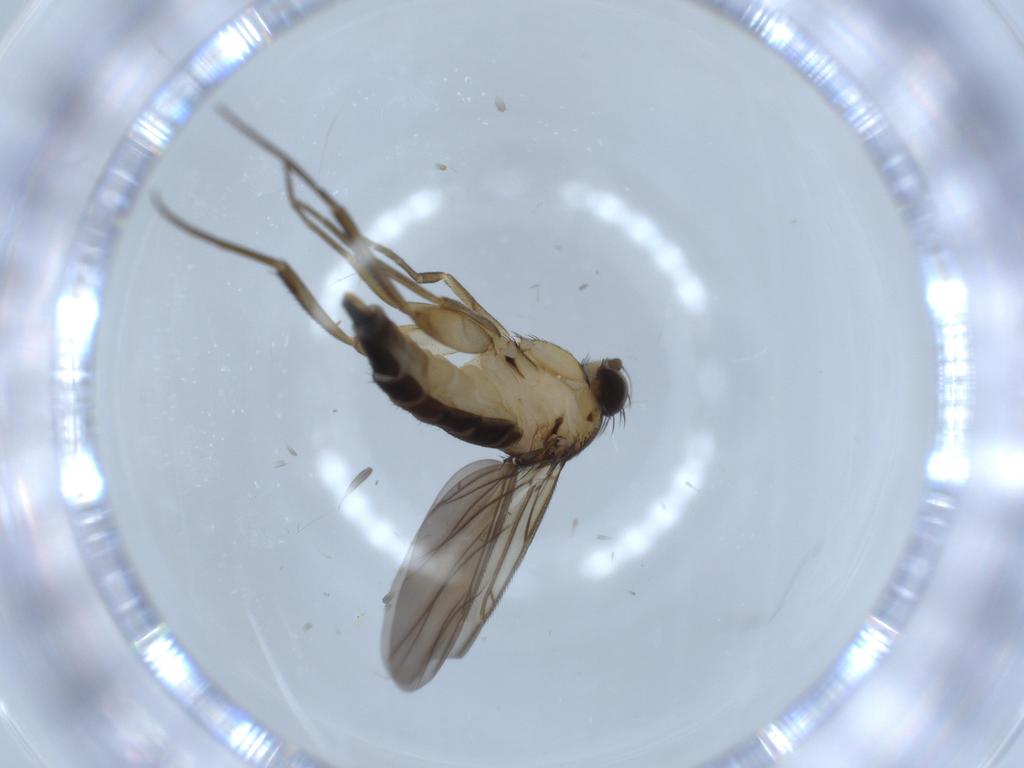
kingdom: Animalia
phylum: Arthropoda
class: Insecta
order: Diptera
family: Phoridae
